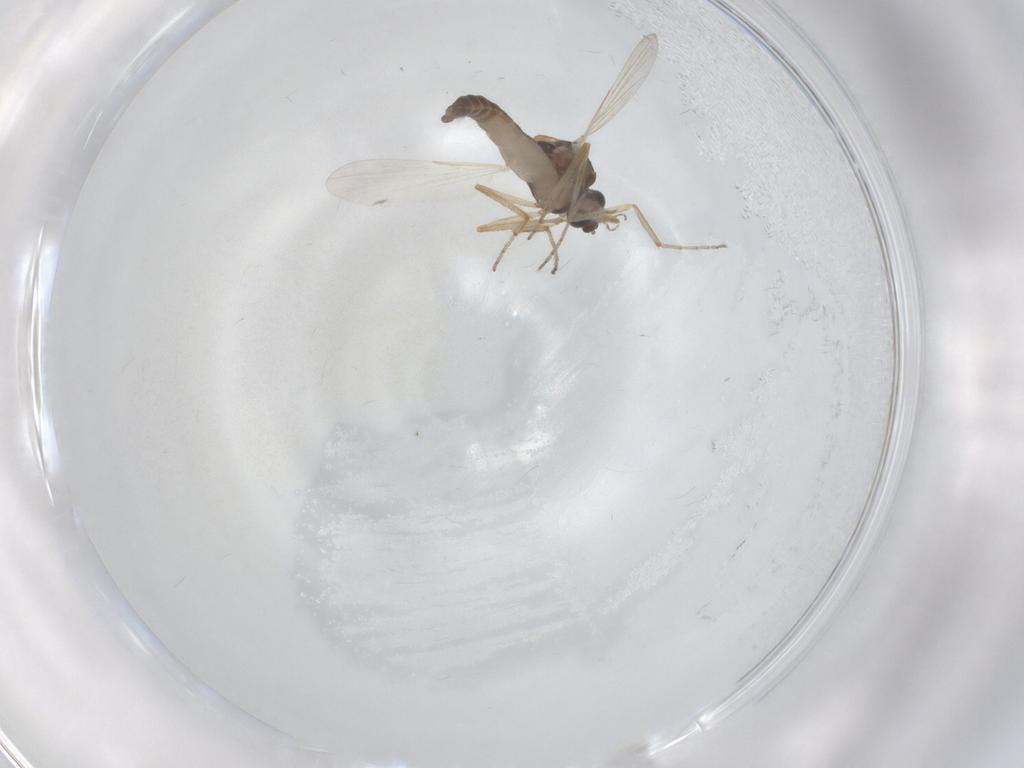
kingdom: Animalia
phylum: Arthropoda
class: Insecta
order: Diptera
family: Ceratopogonidae
